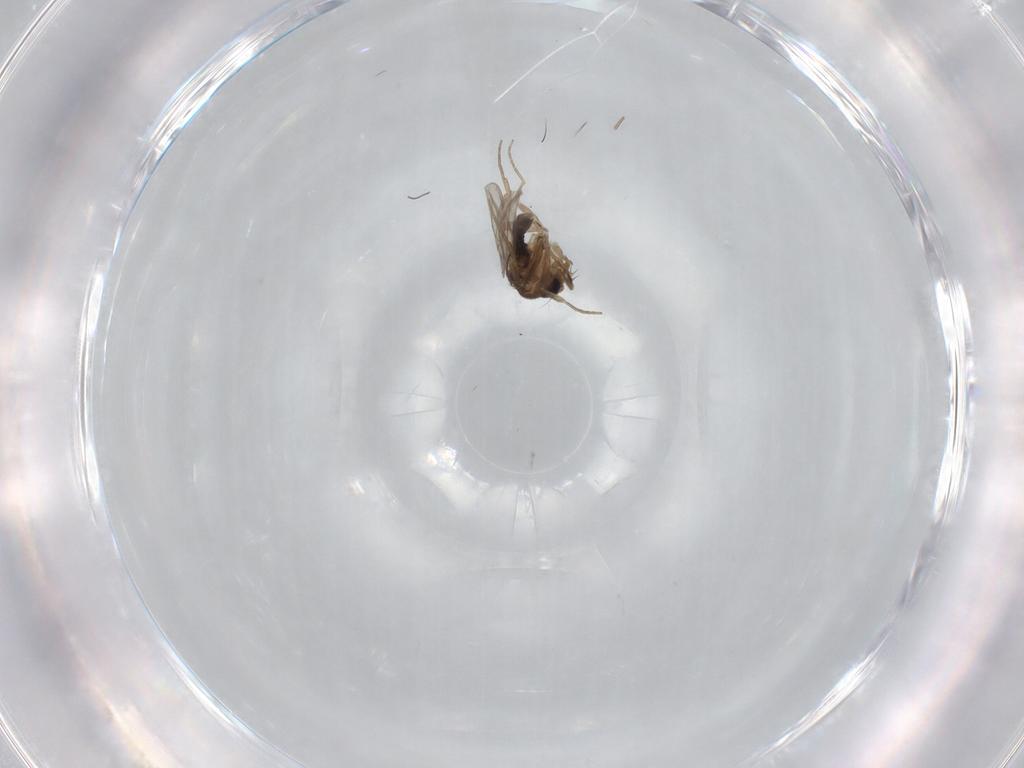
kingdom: Animalia
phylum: Arthropoda
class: Insecta
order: Diptera
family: Phoridae
